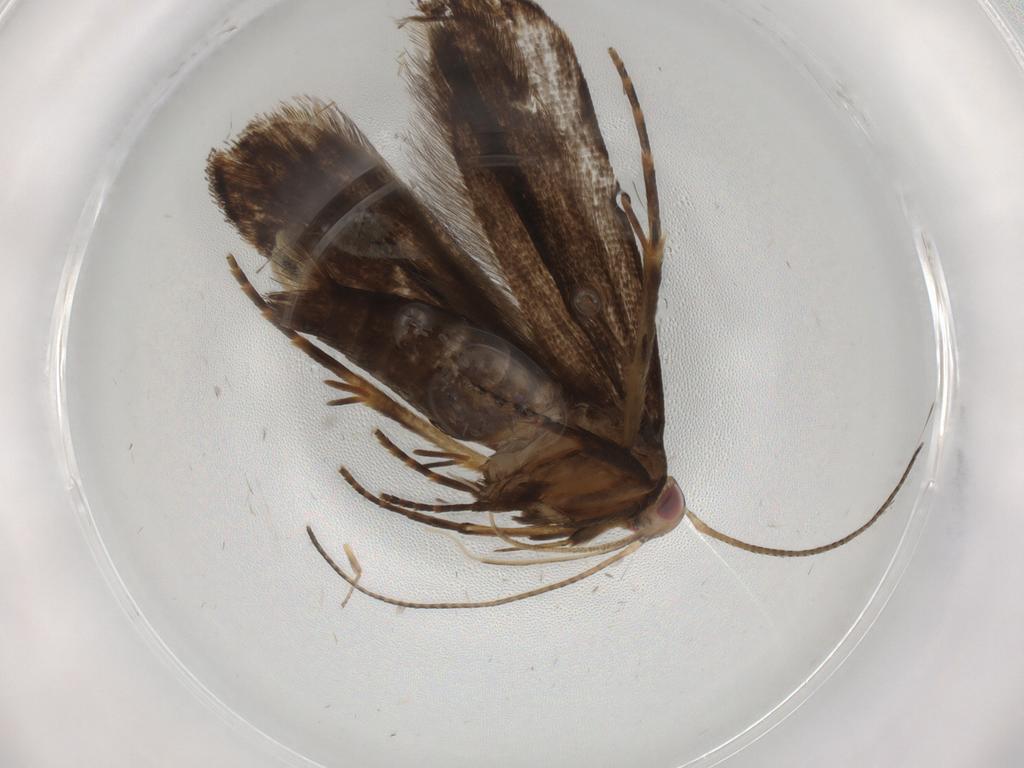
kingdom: Animalia
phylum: Arthropoda
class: Insecta
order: Lepidoptera
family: Gelechiidae
